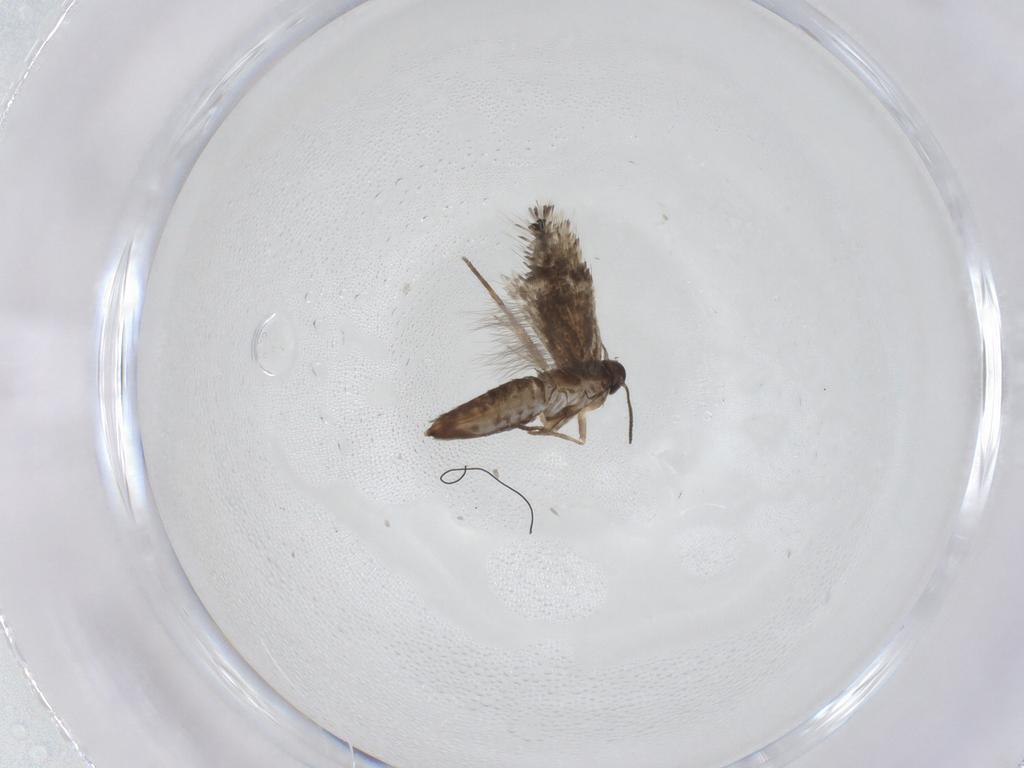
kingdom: Animalia
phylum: Arthropoda
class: Insecta
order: Lepidoptera
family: Heliozelidae
